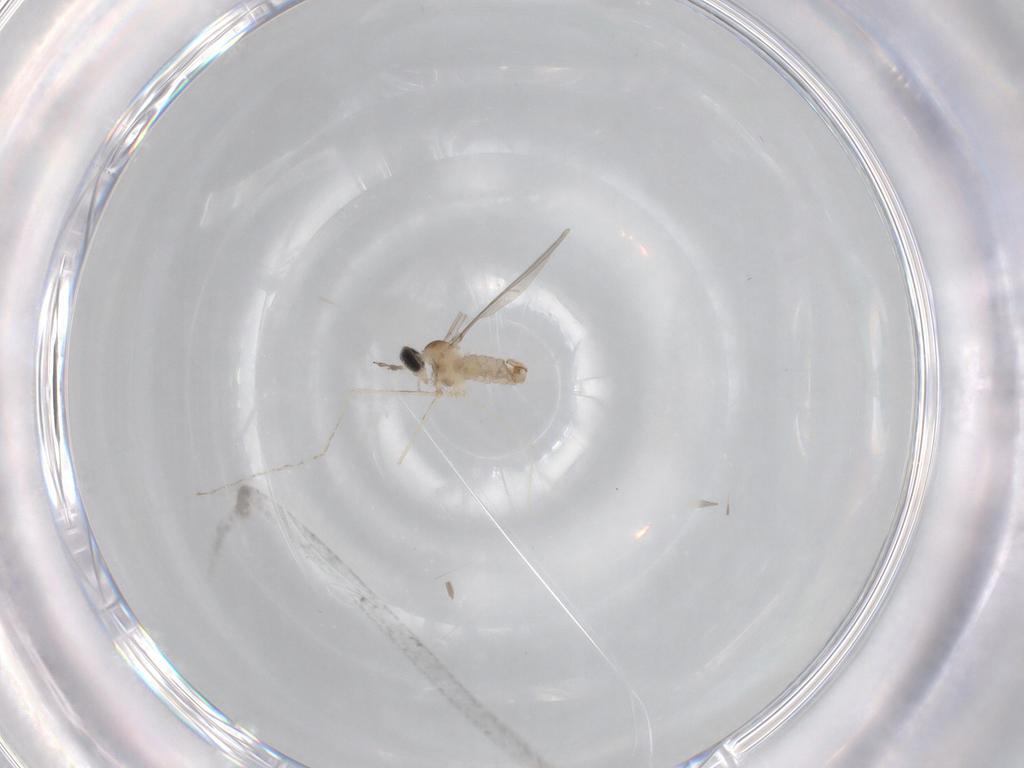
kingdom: Animalia
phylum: Arthropoda
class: Insecta
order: Diptera
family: Cecidomyiidae
